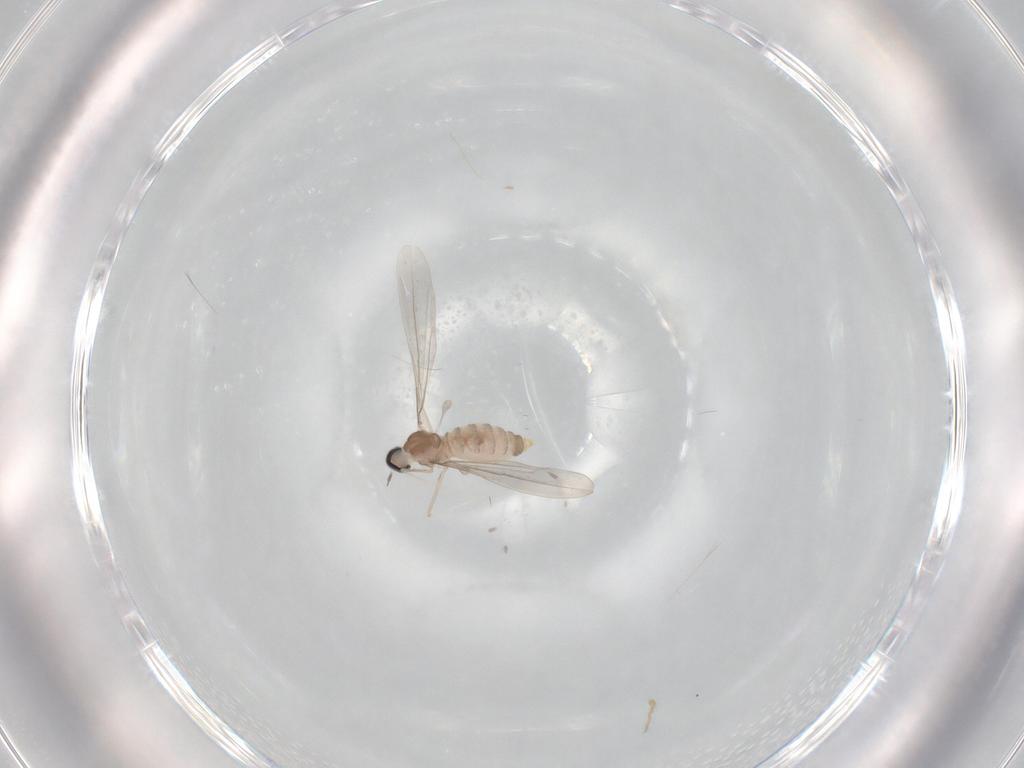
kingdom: Animalia
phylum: Arthropoda
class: Insecta
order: Diptera
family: Cecidomyiidae
